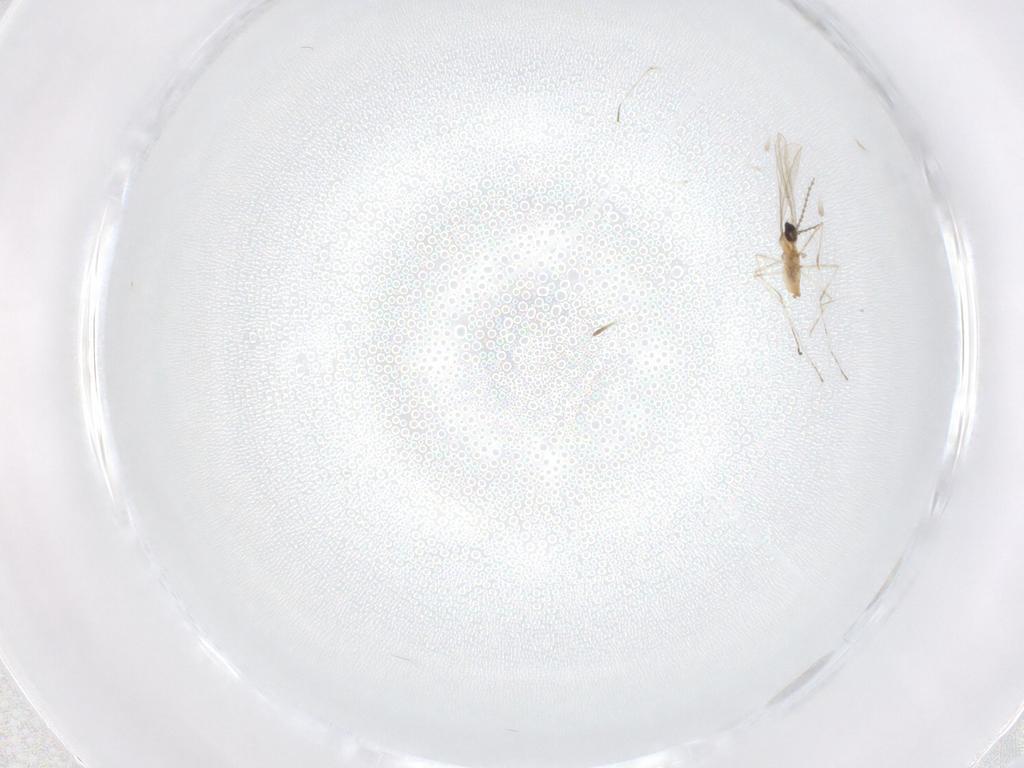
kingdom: Animalia
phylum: Arthropoda
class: Insecta
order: Diptera
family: Cecidomyiidae
